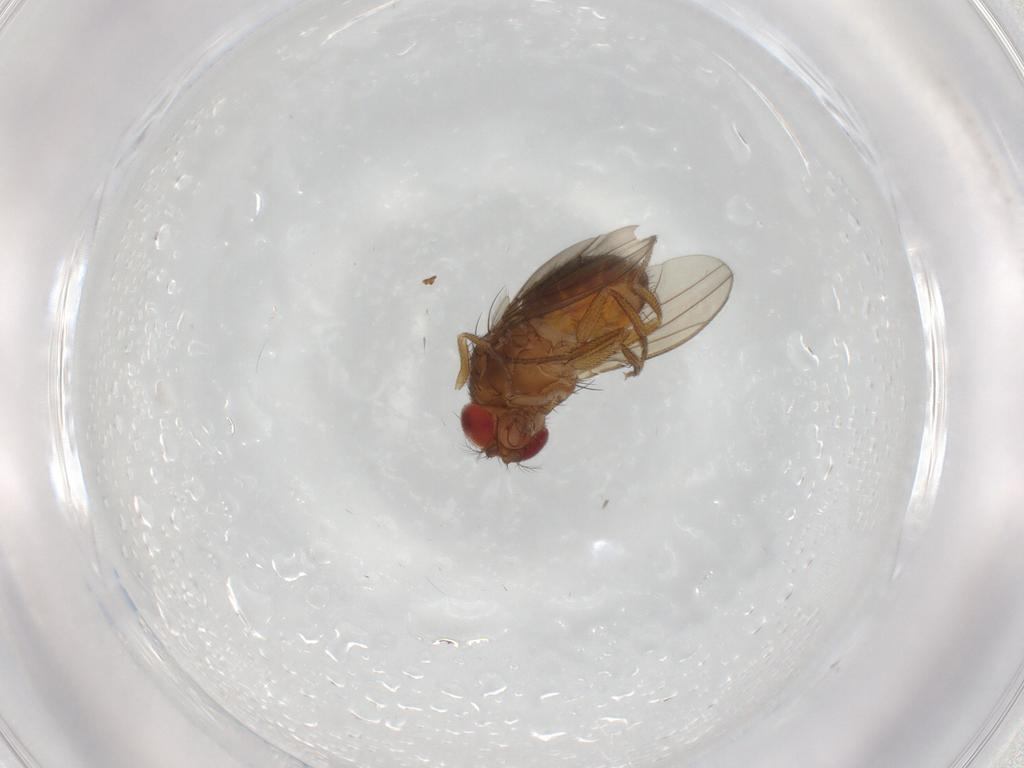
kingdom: Animalia
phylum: Arthropoda
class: Insecta
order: Diptera
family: Drosophilidae
